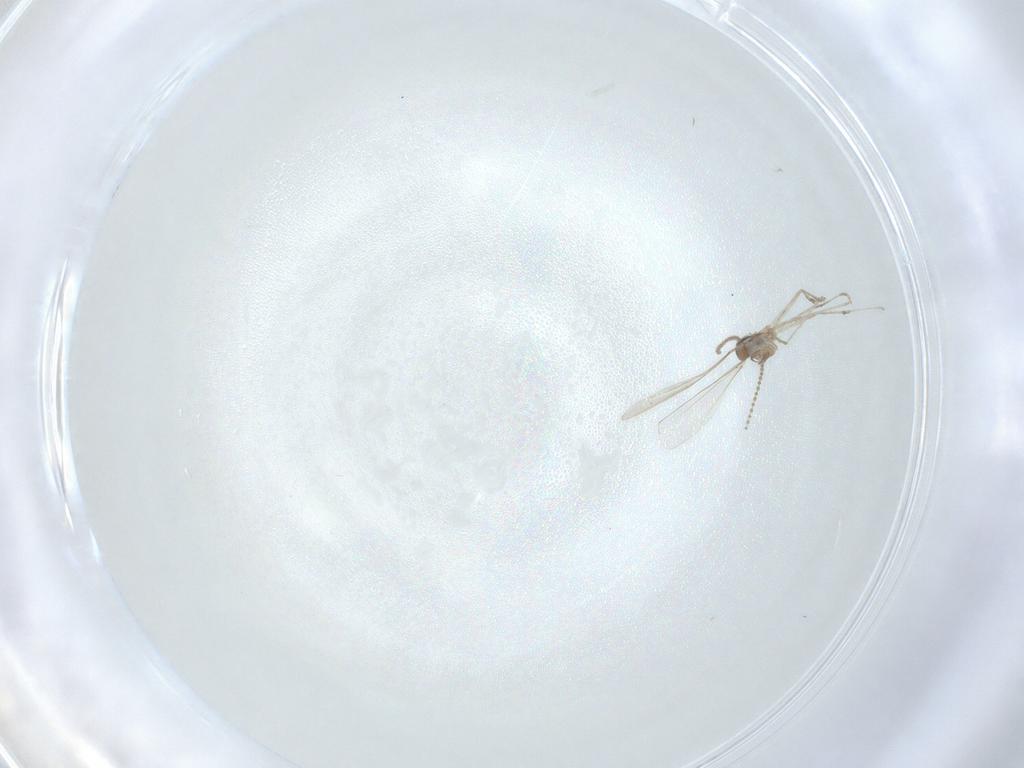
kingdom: Animalia
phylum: Arthropoda
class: Insecta
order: Diptera
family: Cecidomyiidae
